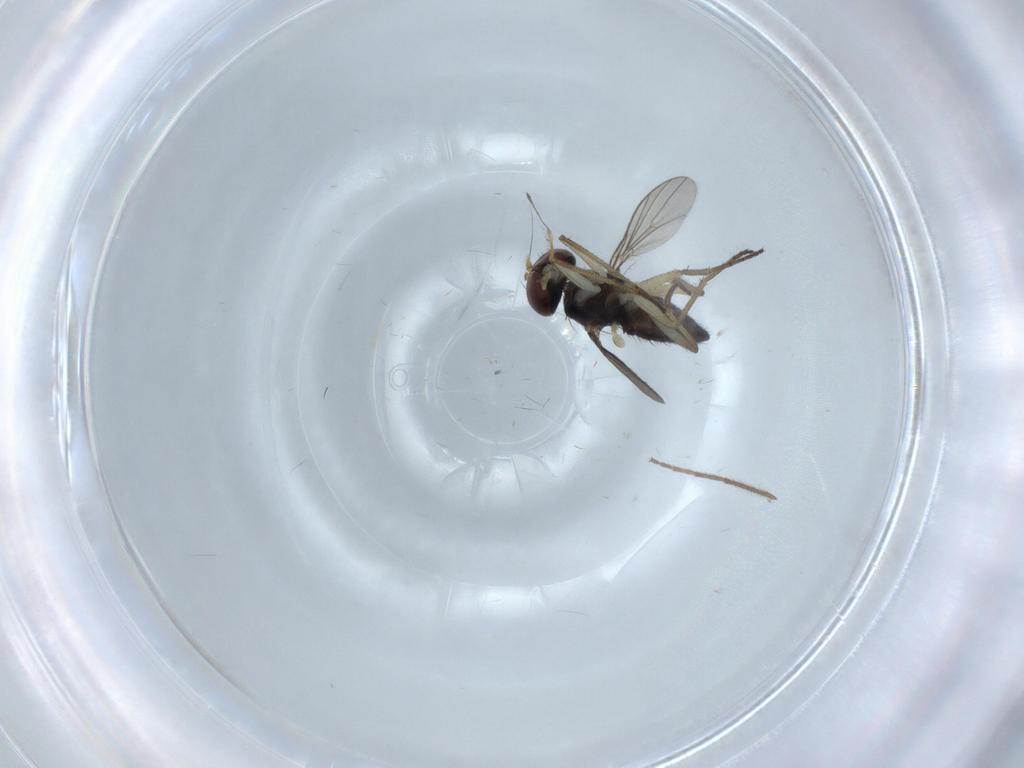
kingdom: Animalia
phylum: Arthropoda
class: Insecta
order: Diptera
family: Dolichopodidae
